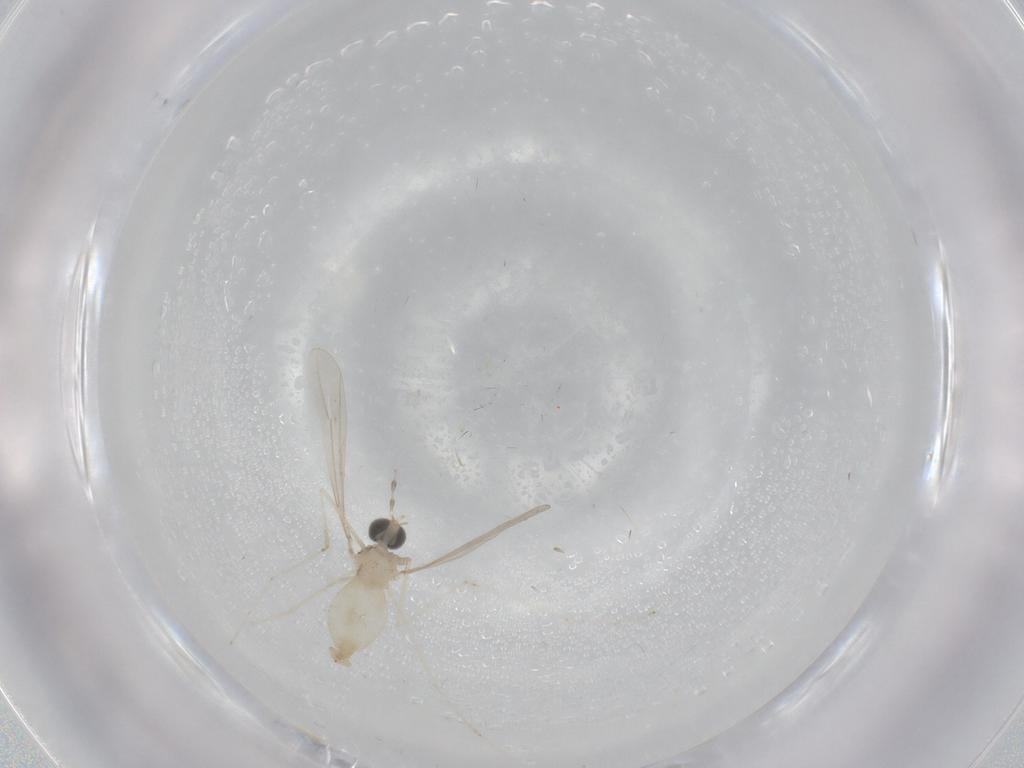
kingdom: Animalia
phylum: Arthropoda
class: Insecta
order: Diptera
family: Cecidomyiidae
